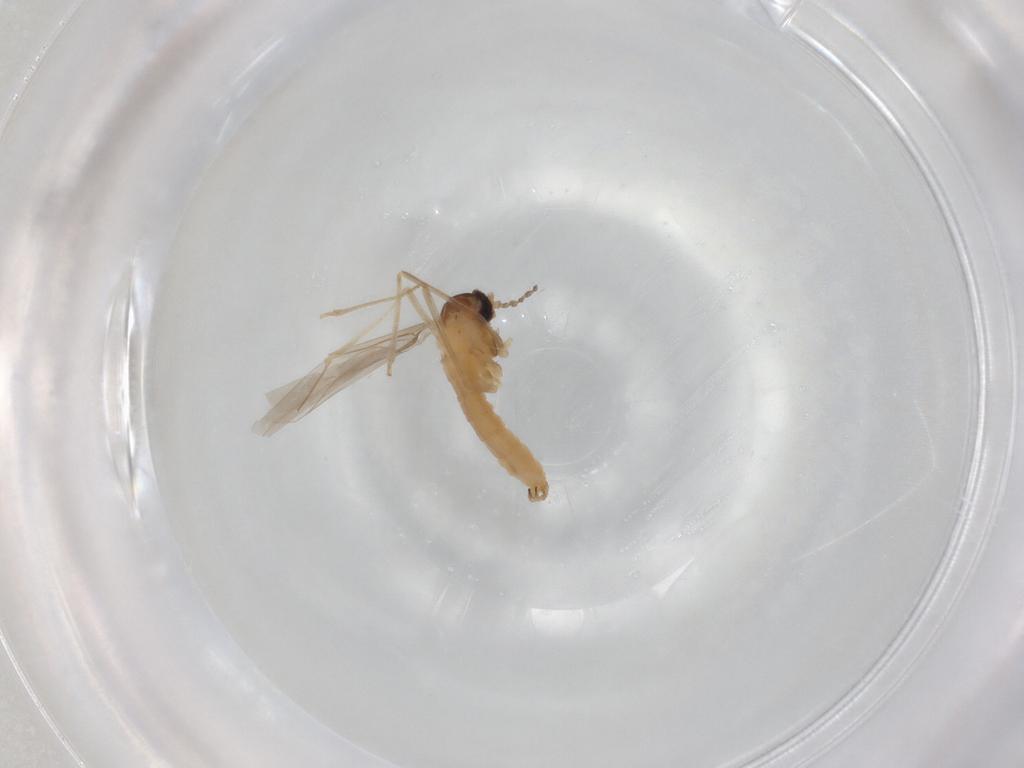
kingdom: Animalia
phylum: Arthropoda
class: Insecta
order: Diptera
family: Cecidomyiidae
